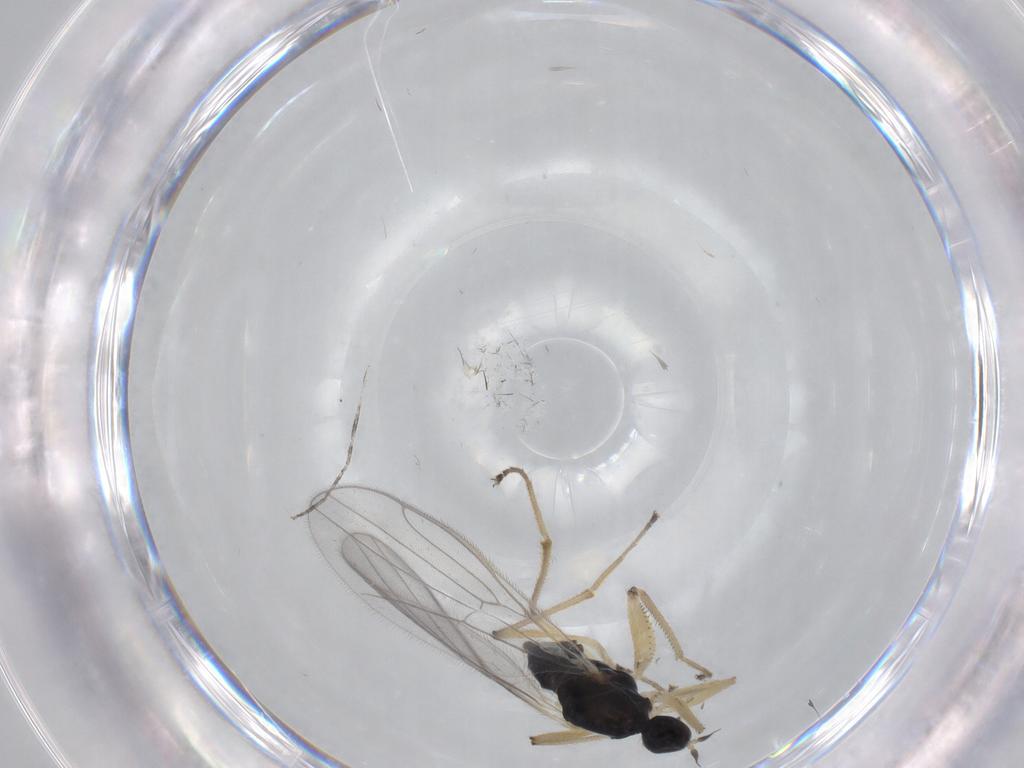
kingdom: Animalia
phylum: Arthropoda
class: Insecta
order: Diptera
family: Hybotidae
